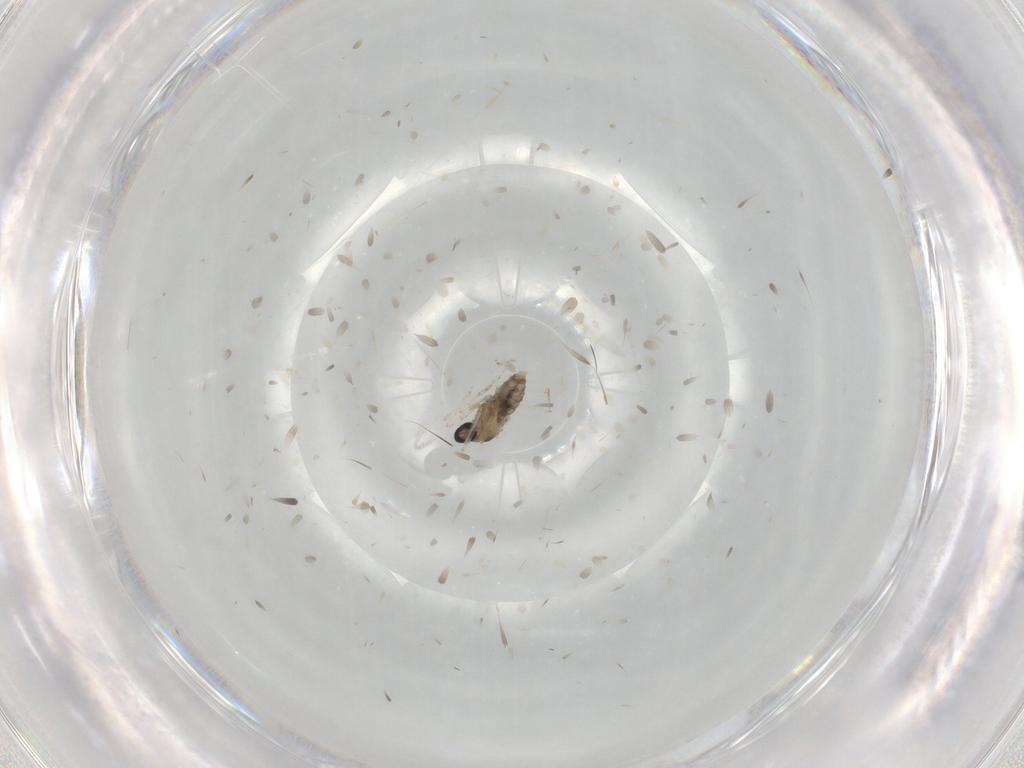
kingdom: Animalia
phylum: Arthropoda
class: Insecta
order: Diptera
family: Cecidomyiidae
